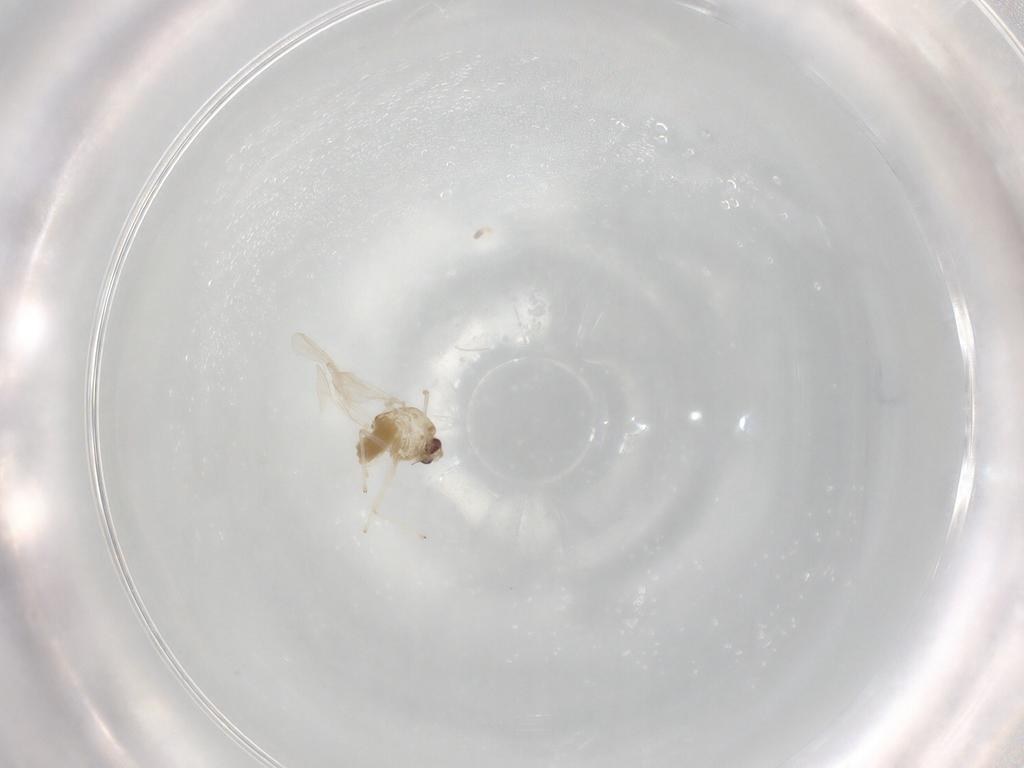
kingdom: Animalia
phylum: Arthropoda
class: Insecta
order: Diptera
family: Chironomidae
